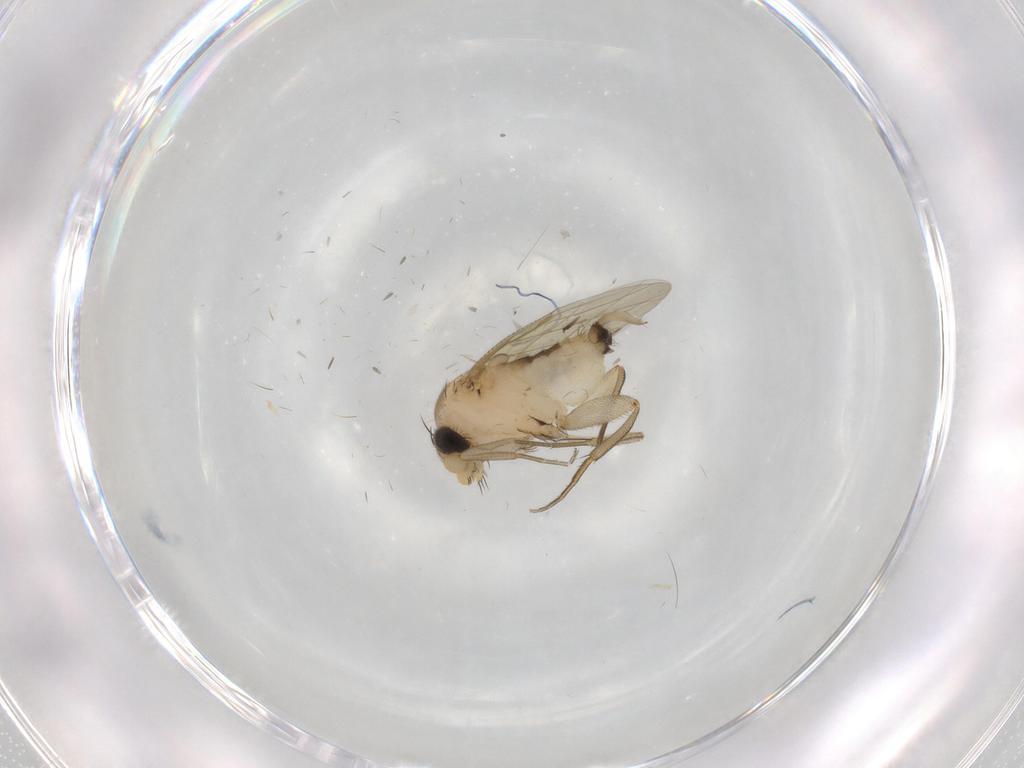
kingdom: Animalia
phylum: Arthropoda
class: Insecta
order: Diptera
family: Phoridae
